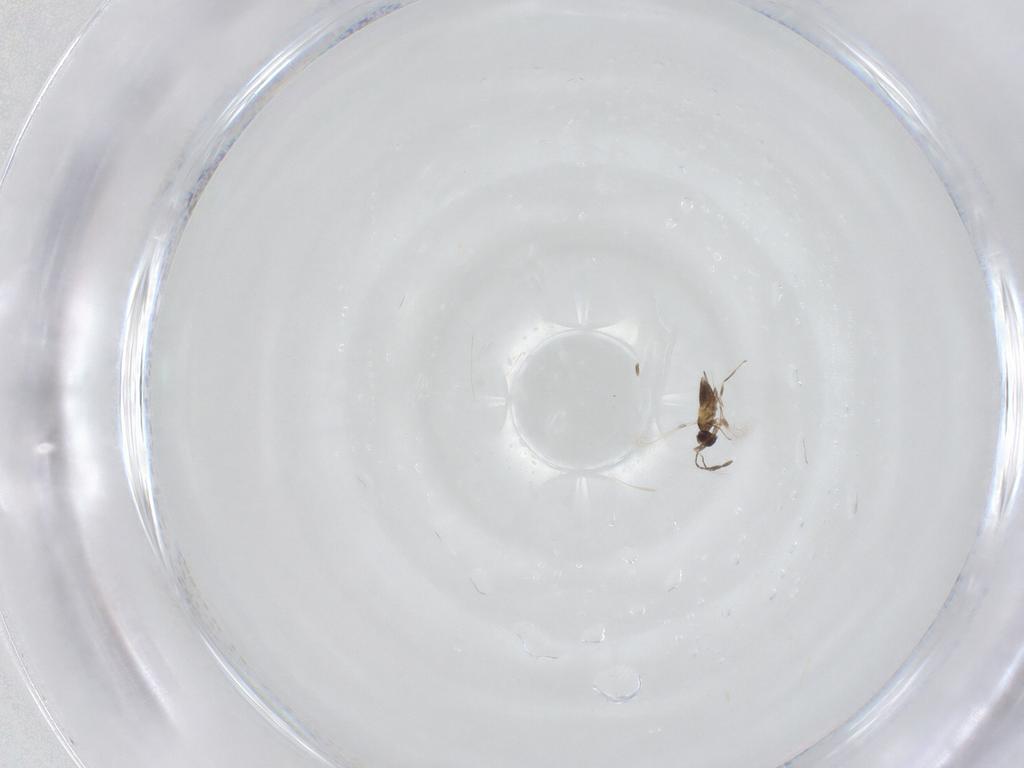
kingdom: Animalia
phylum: Arthropoda
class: Insecta
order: Hymenoptera
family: Mymaridae
